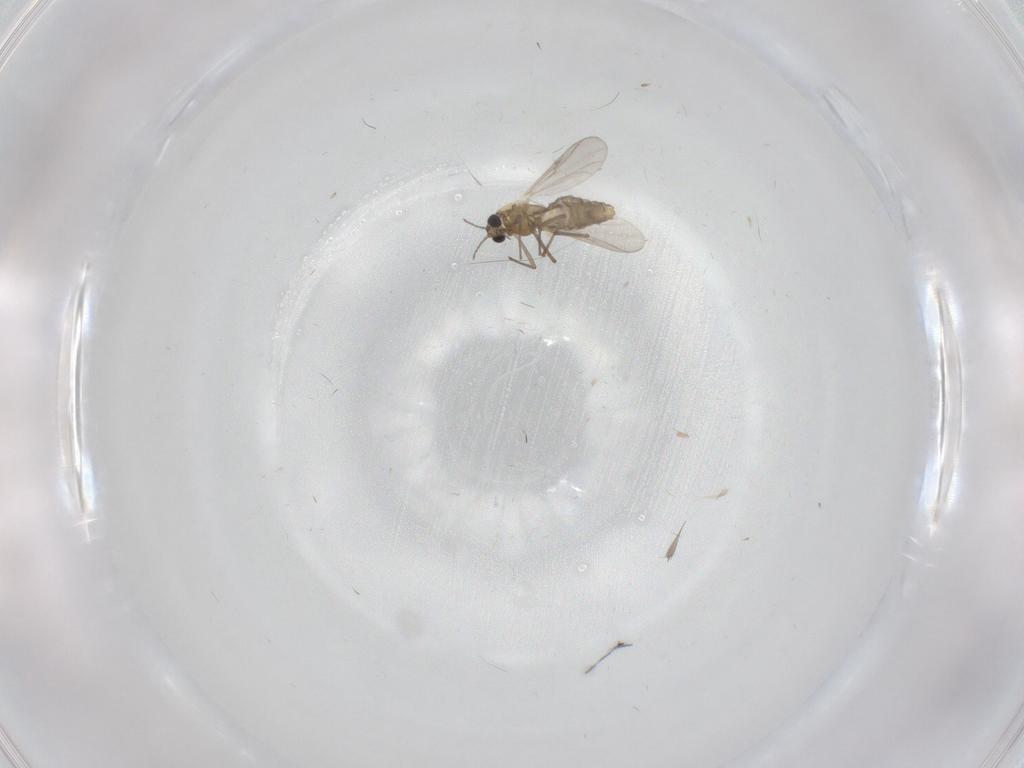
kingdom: Animalia
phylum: Arthropoda
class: Insecta
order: Diptera
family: Chironomidae
